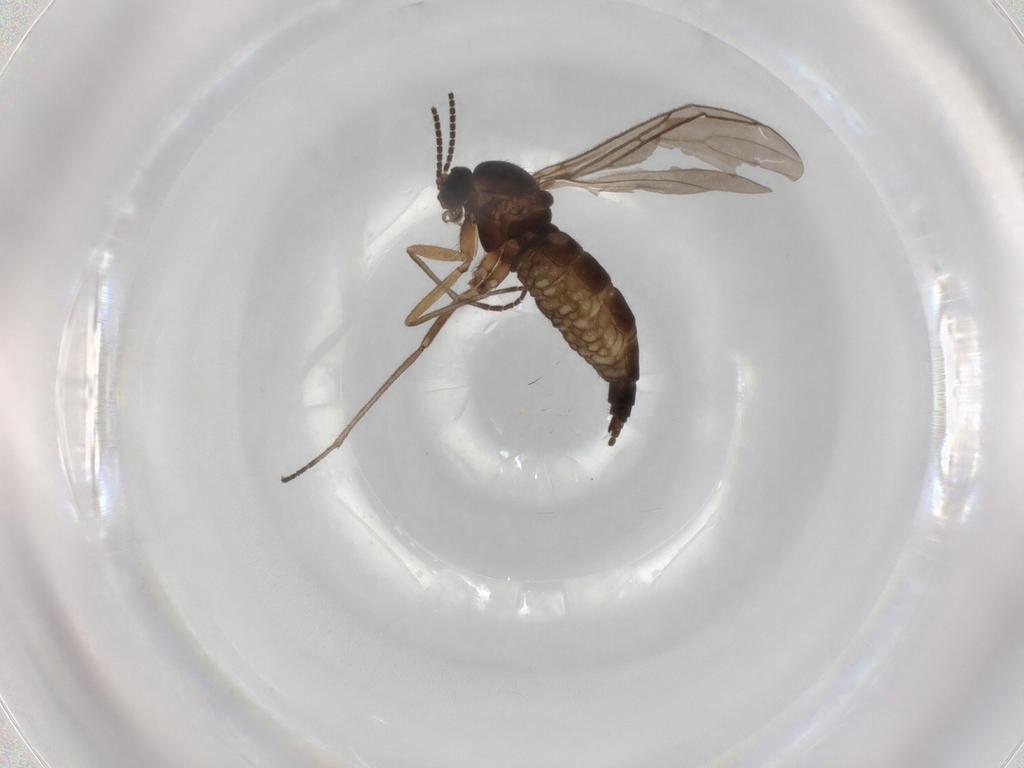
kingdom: Animalia
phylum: Arthropoda
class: Insecta
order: Diptera
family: Sciaridae
